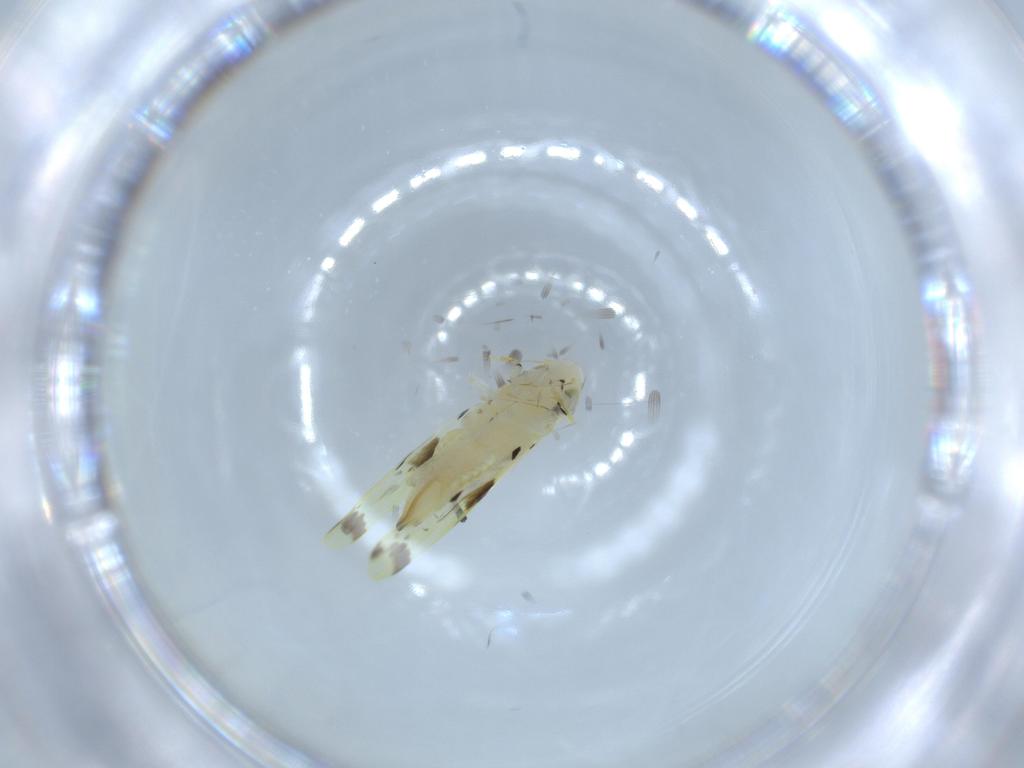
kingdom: Animalia
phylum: Arthropoda
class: Insecta
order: Hemiptera
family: Cicadellidae
